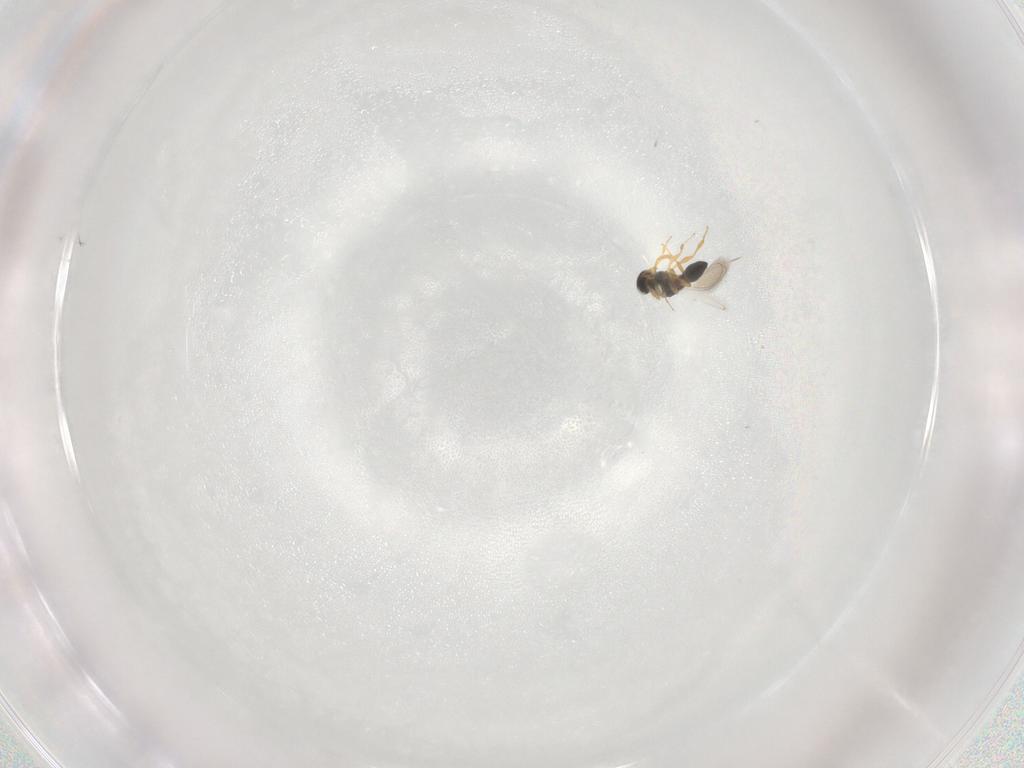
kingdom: Animalia
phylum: Arthropoda
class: Insecta
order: Hymenoptera
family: Platygastridae
